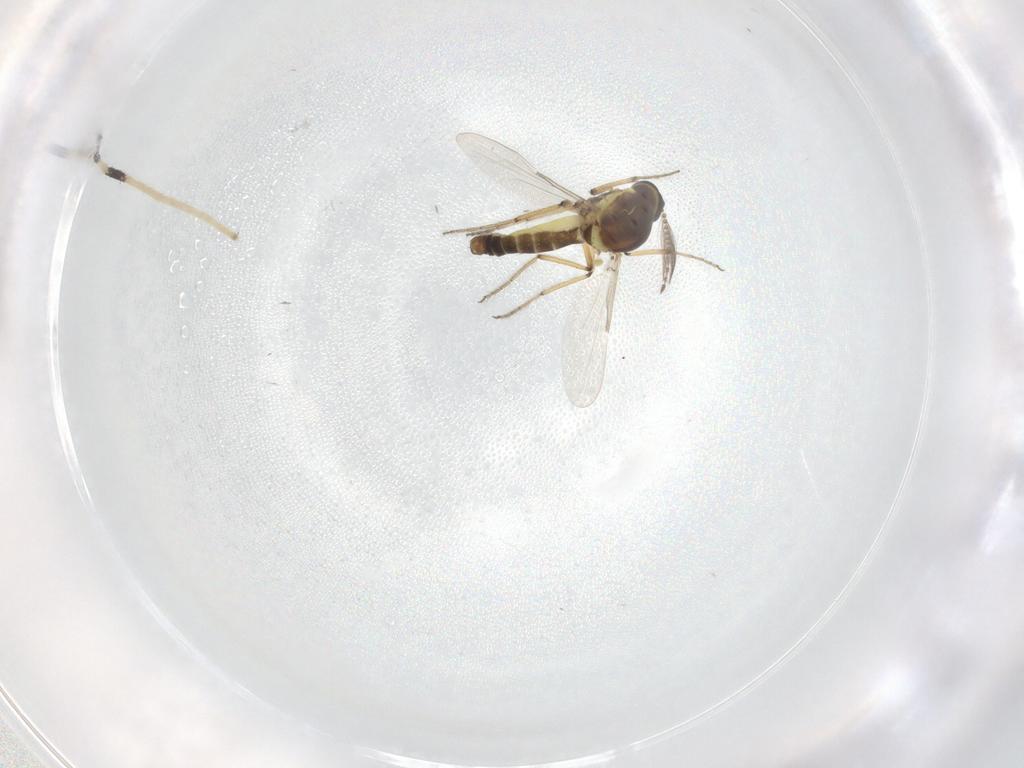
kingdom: Animalia
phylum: Arthropoda
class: Insecta
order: Diptera
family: Ceratopogonidae
